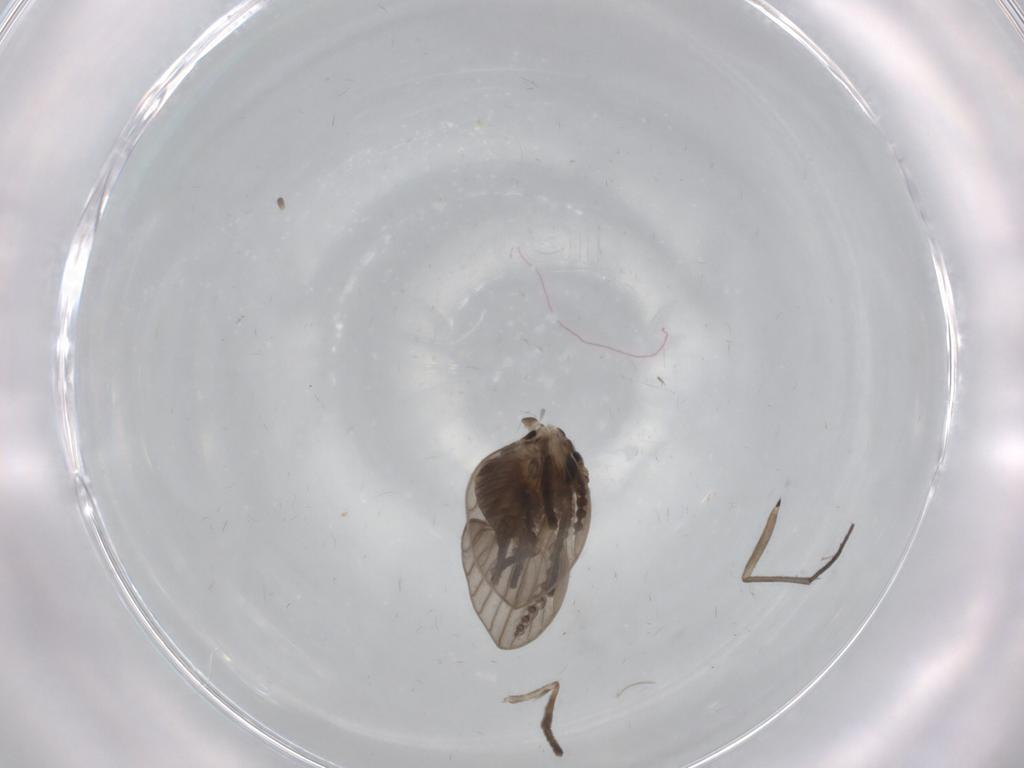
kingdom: Animalia
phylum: Arthropoda
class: Insecta
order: Diptera
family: Psychodidae
